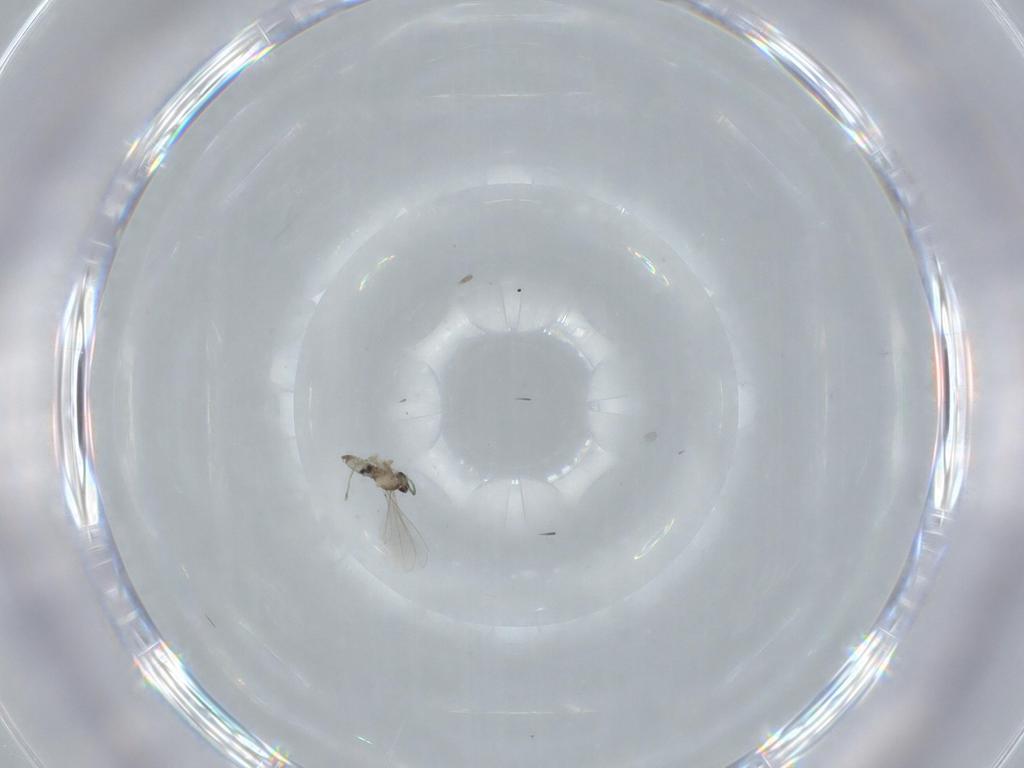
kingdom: Animalia
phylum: Arthropoda
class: Insecta
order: Diptera
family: Cecidomyiidae
